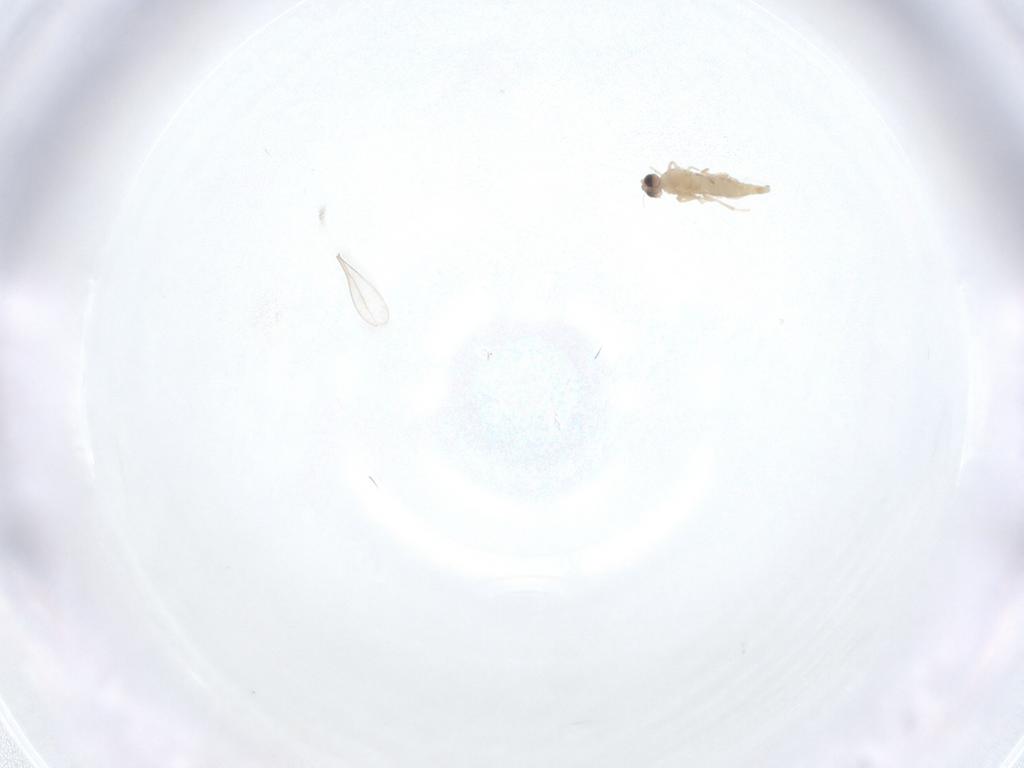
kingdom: Animalia
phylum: Arthropoda
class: Insecta
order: Diptera
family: Cecidomyiidae
